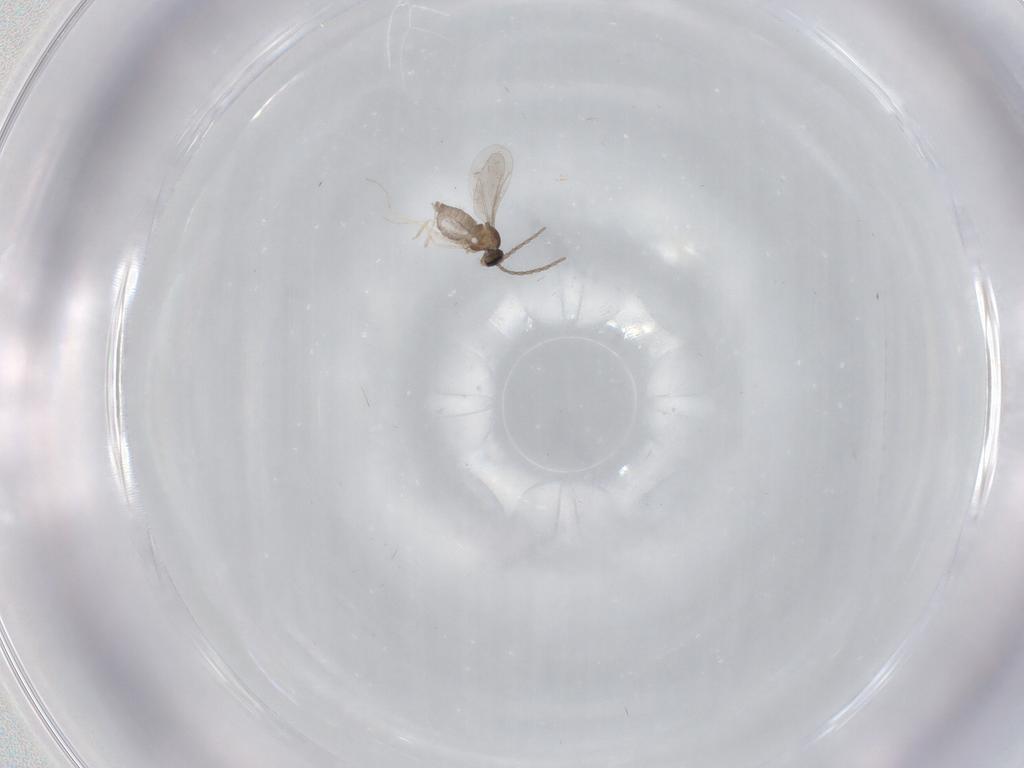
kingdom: Animalia
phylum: Arthropoda
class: Insecta
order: Diptera
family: Cecidomyiidae
